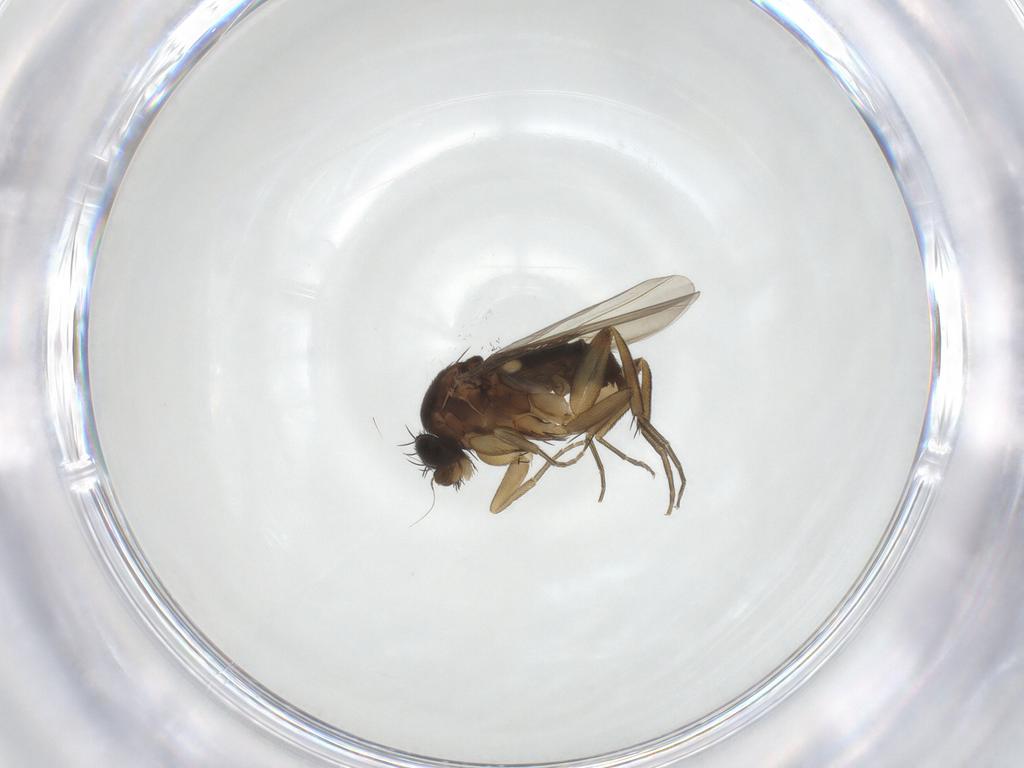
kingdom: Animalia
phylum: Arthropoda
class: Insecta
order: Diptera
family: Phoridae
